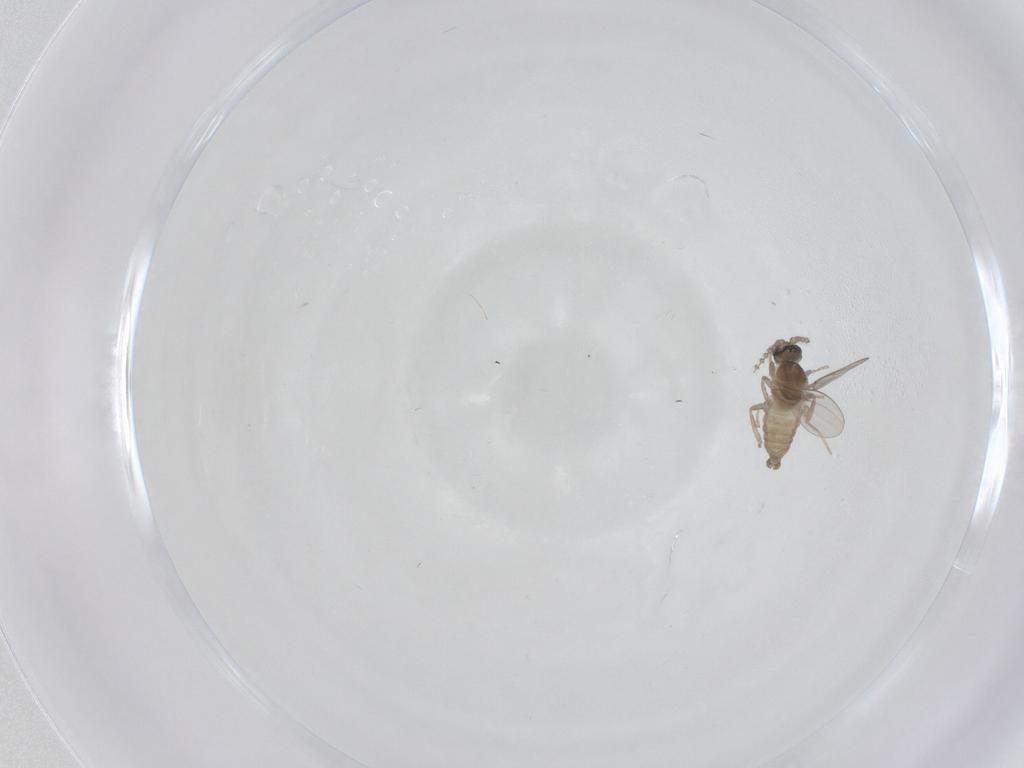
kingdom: Animalia
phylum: Arthropoda
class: Insecta
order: Diptera
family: Cecidomyiidae
